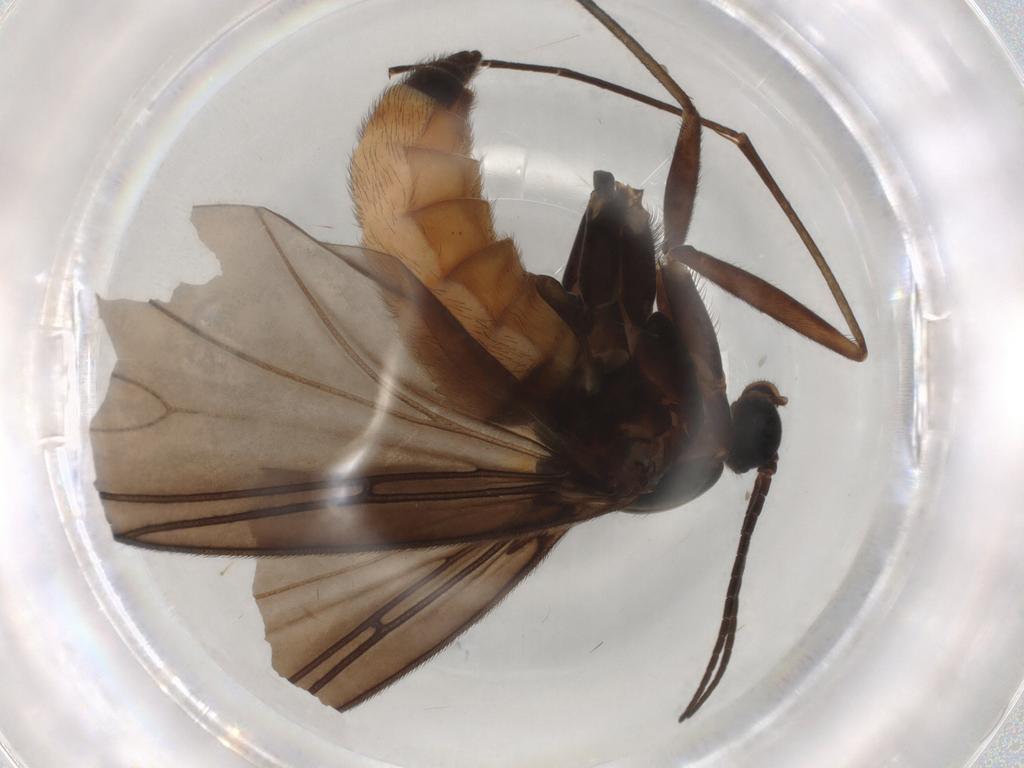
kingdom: Animalia
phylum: Arthropoda
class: Insecta
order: Diptera
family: Sciaridae
